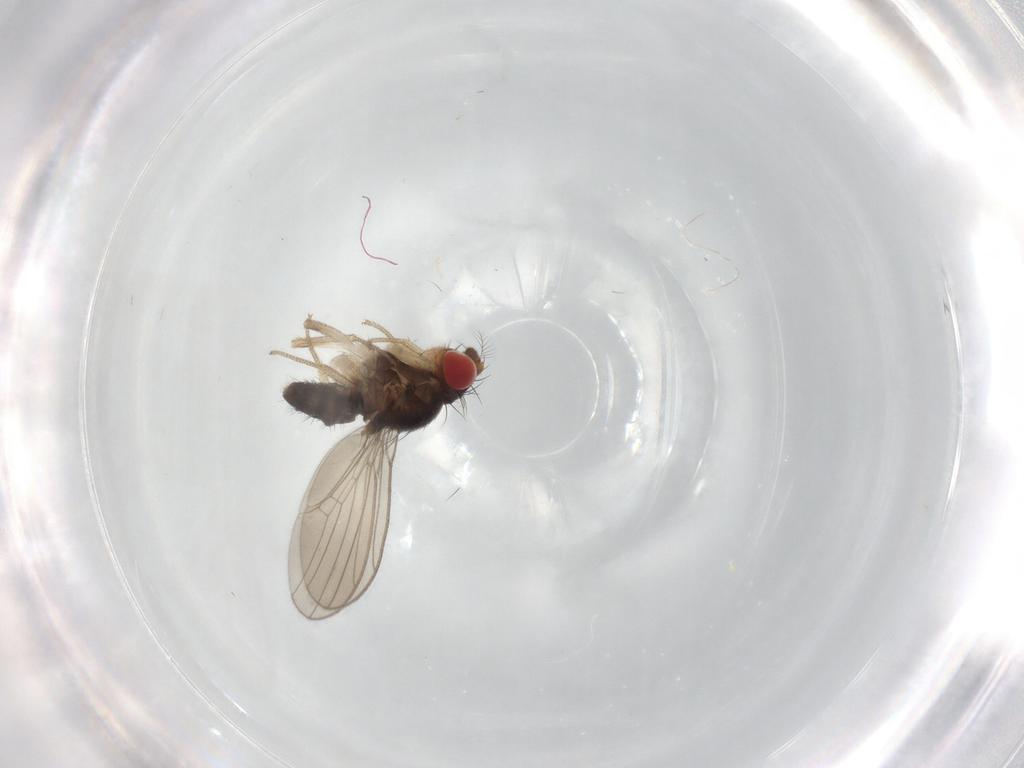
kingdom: Animalia
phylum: Arthropoda
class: Insecta
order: Diptera
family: Drosophilidae
